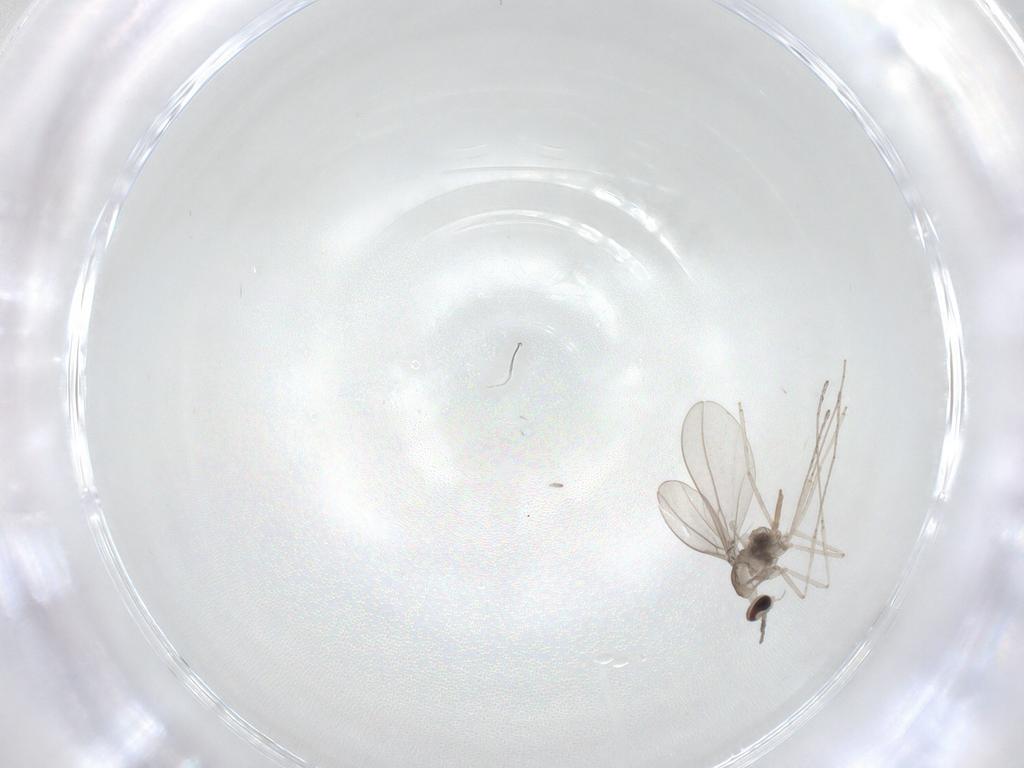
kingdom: Animalia
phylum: Arthropoda
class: Insecta
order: Diptera
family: Cecidomyiidae
